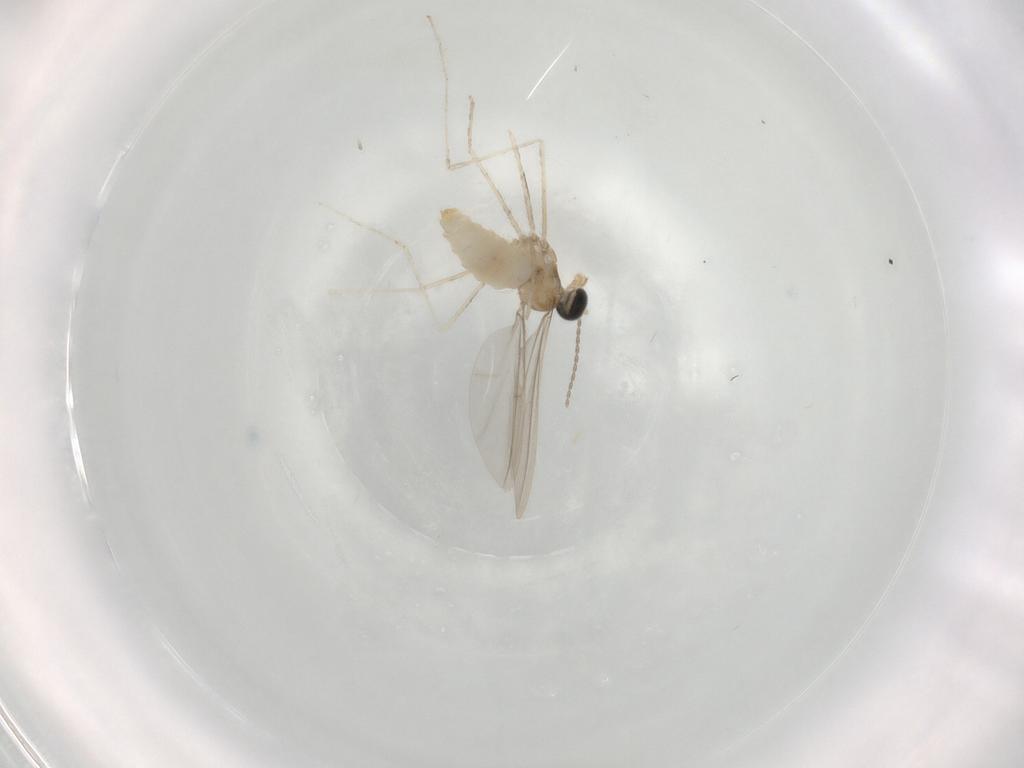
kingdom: Animalia
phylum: Arthropoda
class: Insecta
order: Diptera
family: Cecidomyiidae
